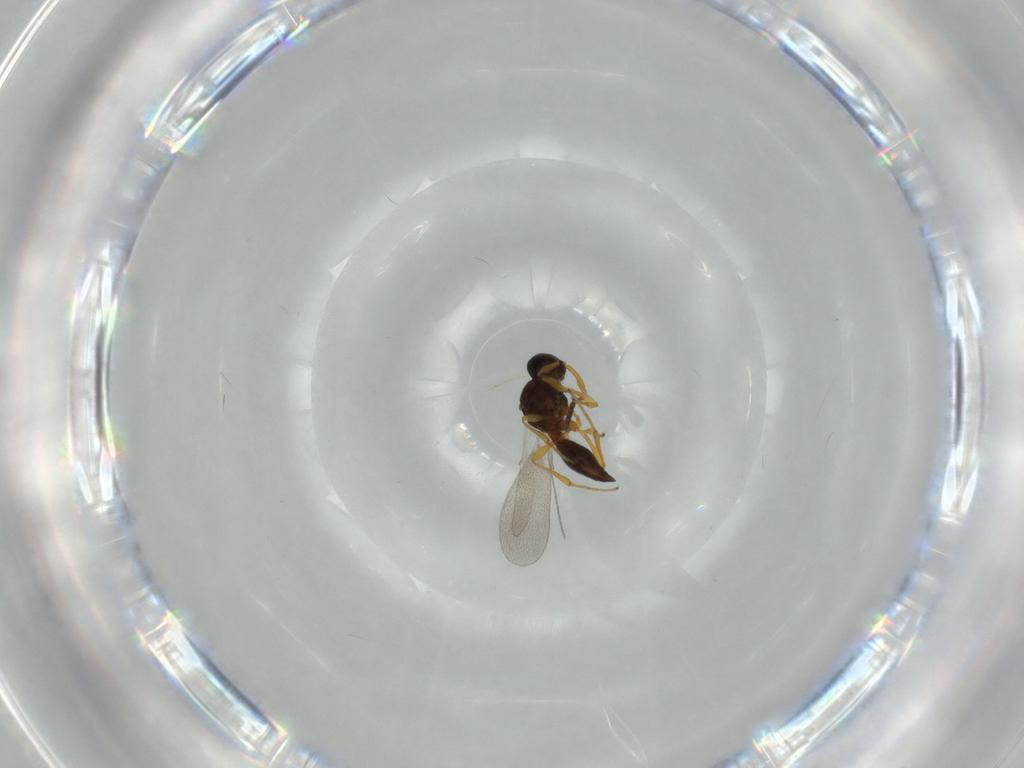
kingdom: Animalia
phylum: Arthropoda
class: Insecta
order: Diptera
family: Mythicomyiidae
